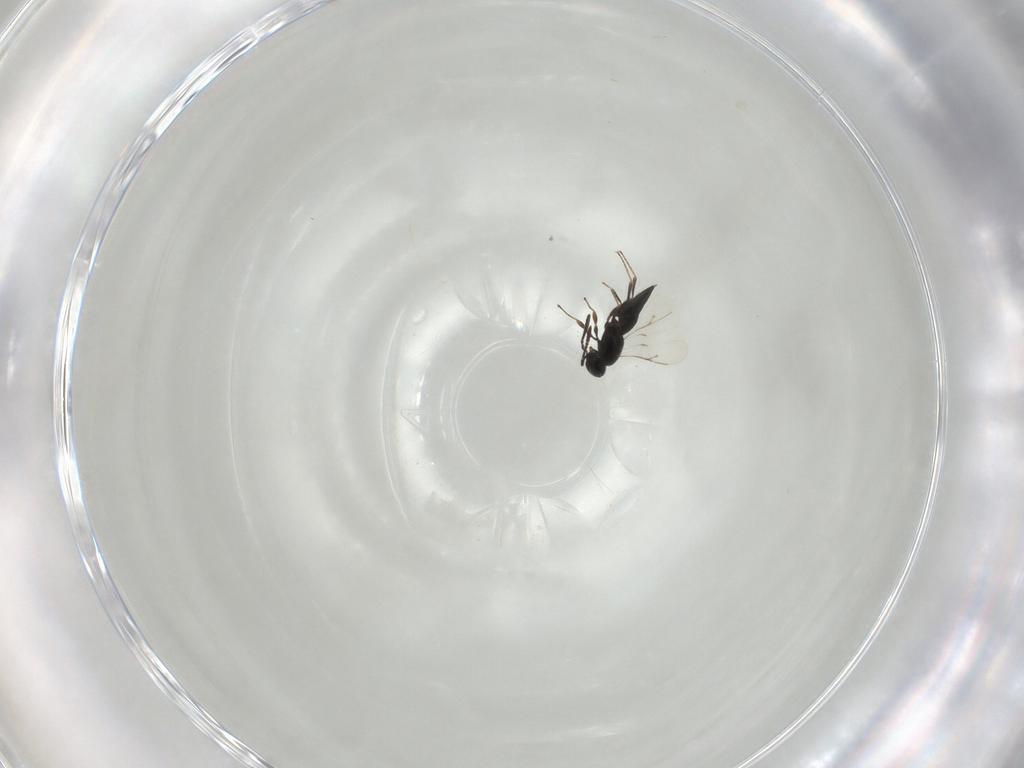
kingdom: Animalia
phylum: Arthropoda
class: Insecta
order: Hymenoptera
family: Scelionidae
